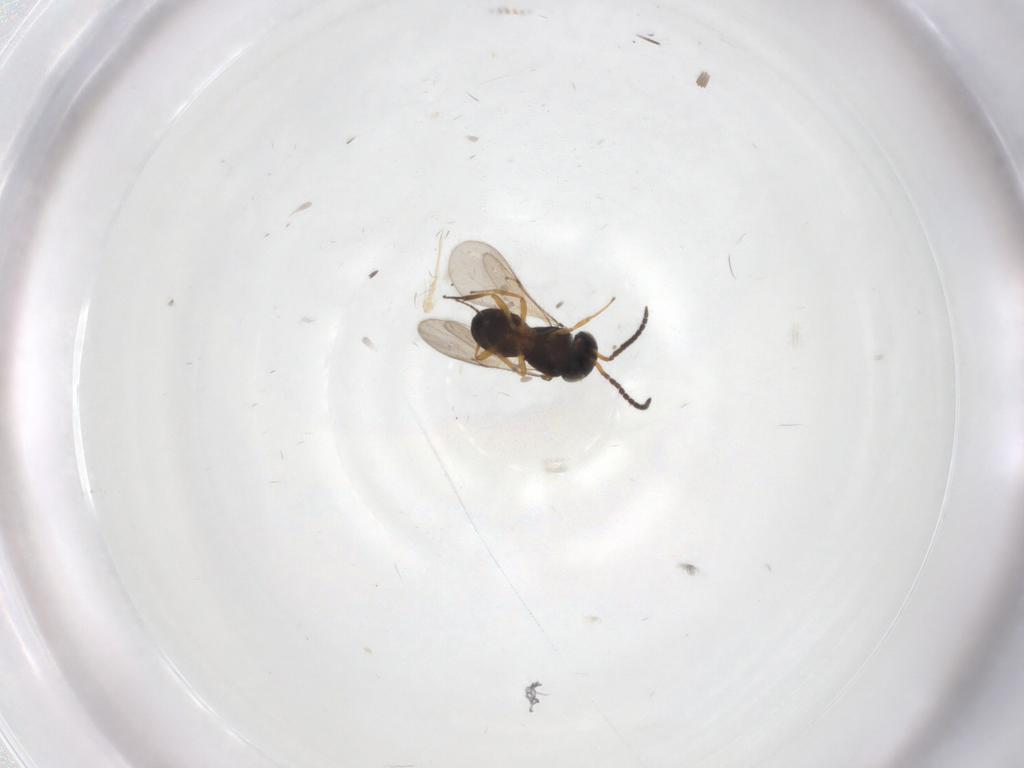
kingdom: Animalia
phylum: Arthropoda
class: Insecta
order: Hymenoptera
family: Scelionidae
